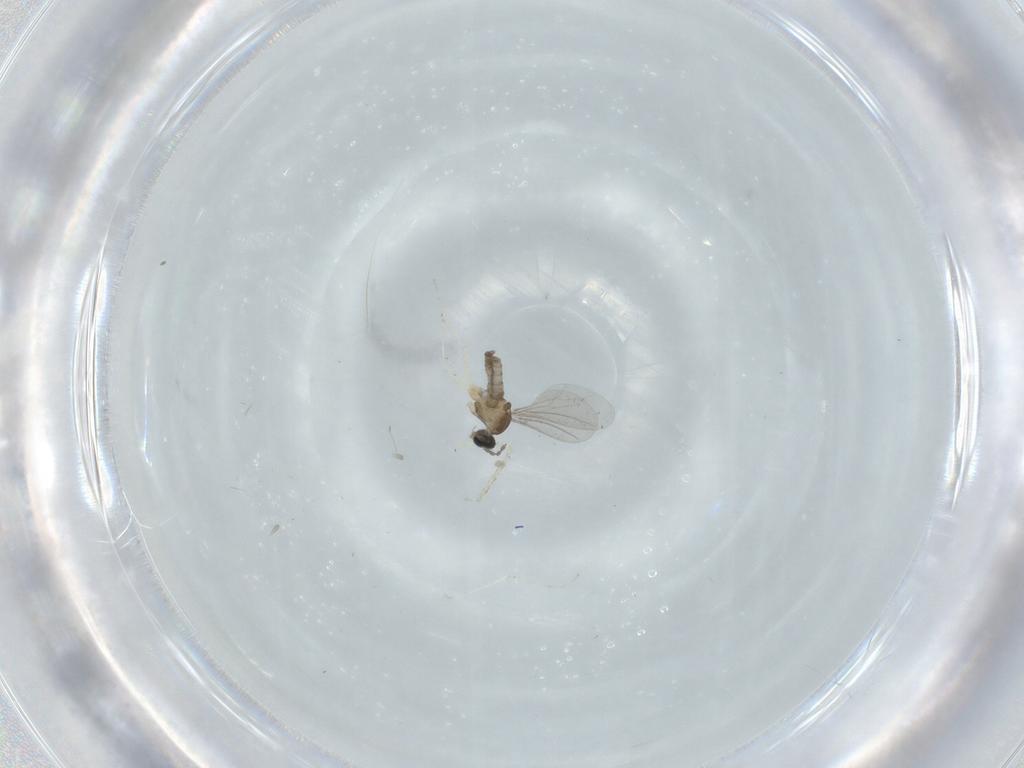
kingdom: Animalia
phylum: Arthropoda
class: Insecta
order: Diptera
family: Cecidomyiidae
